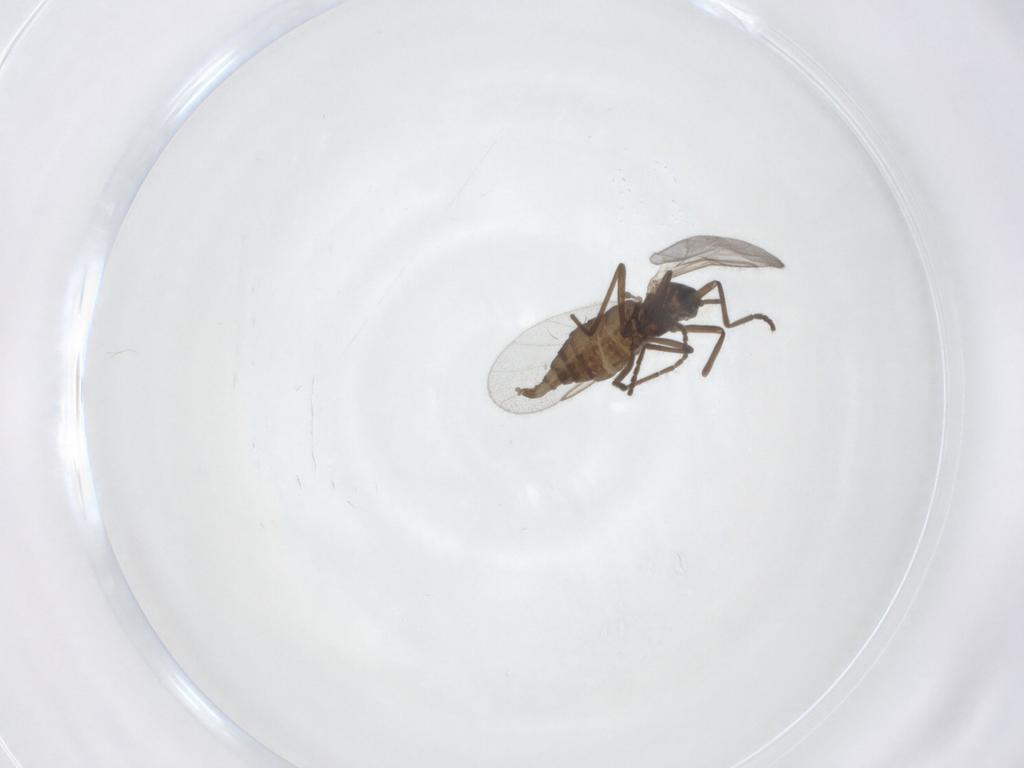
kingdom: Animalia
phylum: Arthropoda
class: Insecta
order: Diptera
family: Cecidomyiidae
